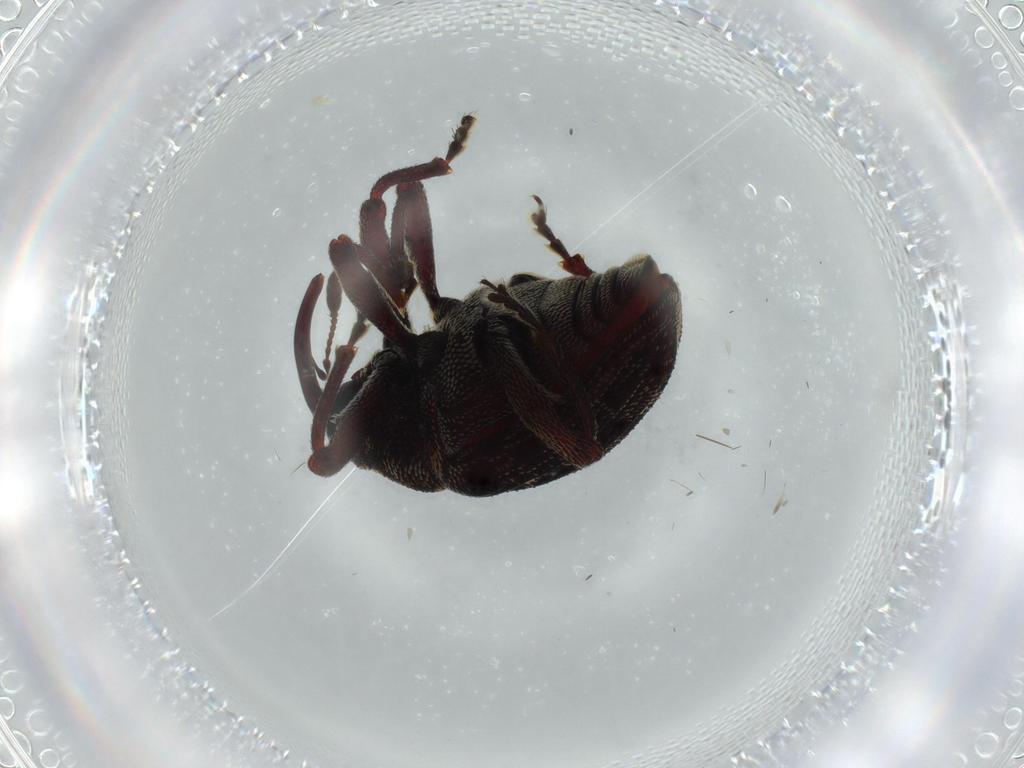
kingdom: Animalia
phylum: Arthropoda
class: Insecta
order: Coleoptera
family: Curculionidae
